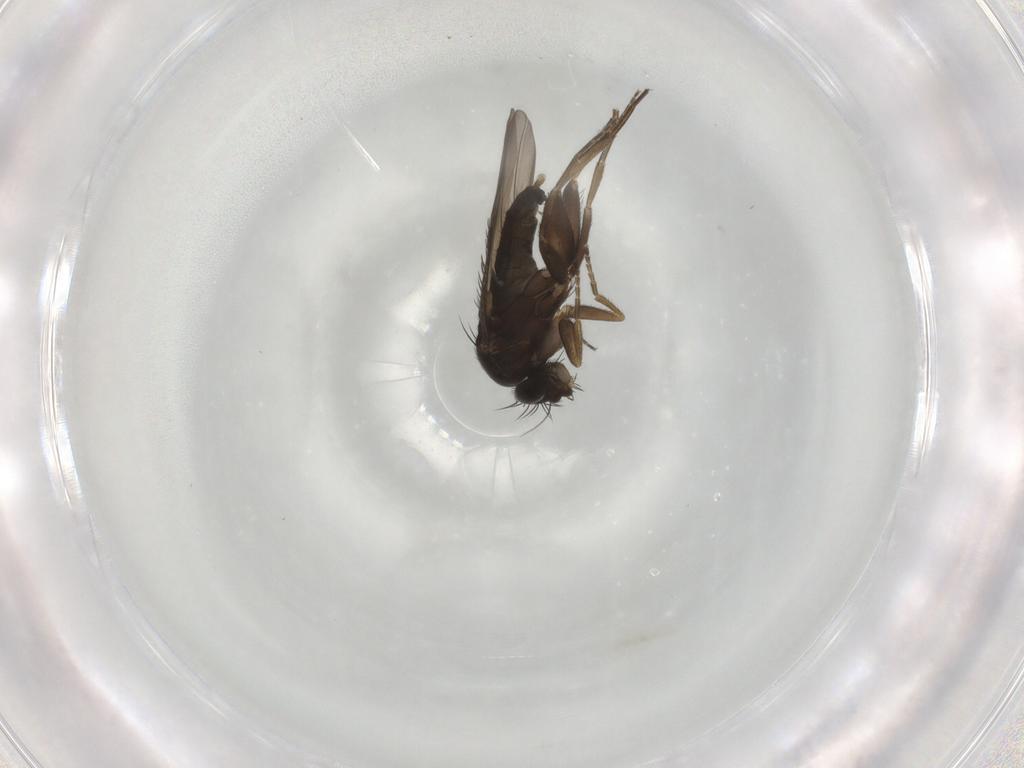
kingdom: Animalia
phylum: Arthropoda
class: Insecta
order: Diptera
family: Phoridae
